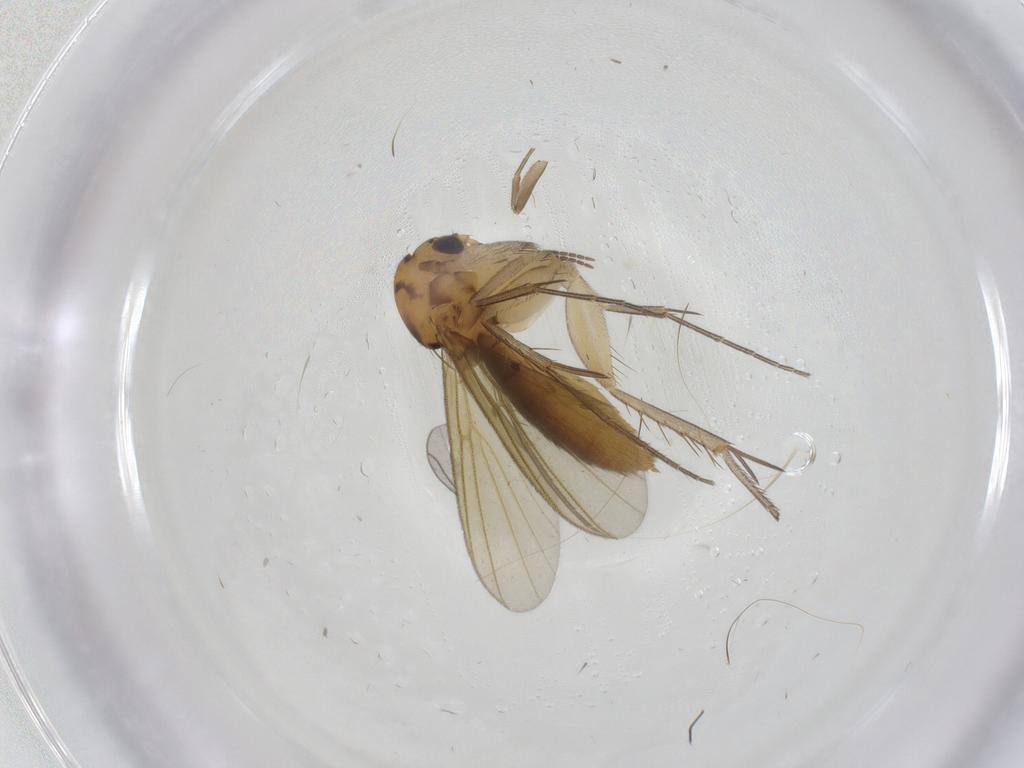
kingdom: Animalia
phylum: Arthropoda
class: Insecta
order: Diptera
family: Mycetophilidae
